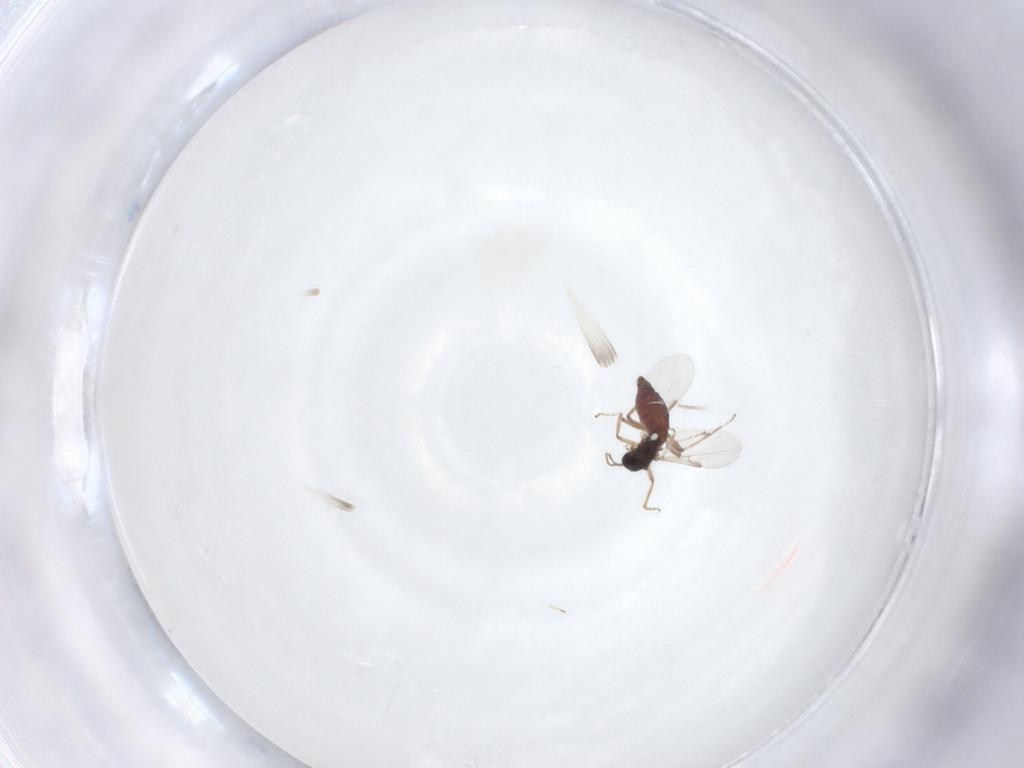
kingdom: Animalia
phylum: Arthropoda
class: Insecta
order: Diptera
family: Ceratopogonidae
